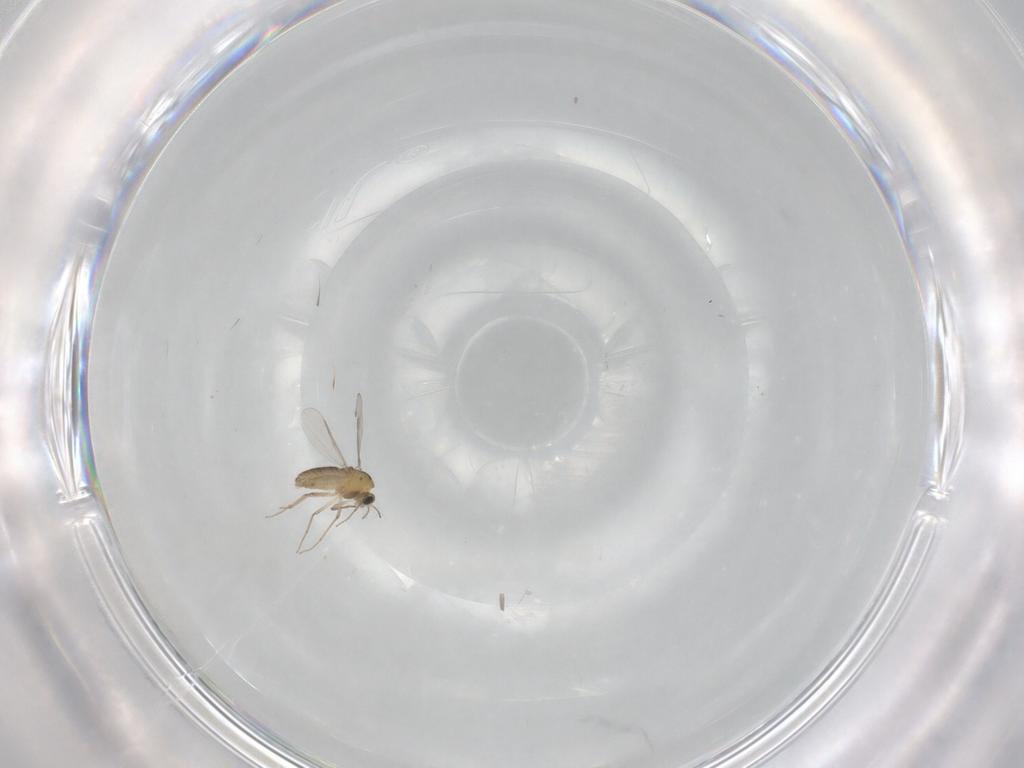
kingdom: Animalia
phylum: Arthropoda
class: Insecta
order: Diptera
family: Chironomidae
